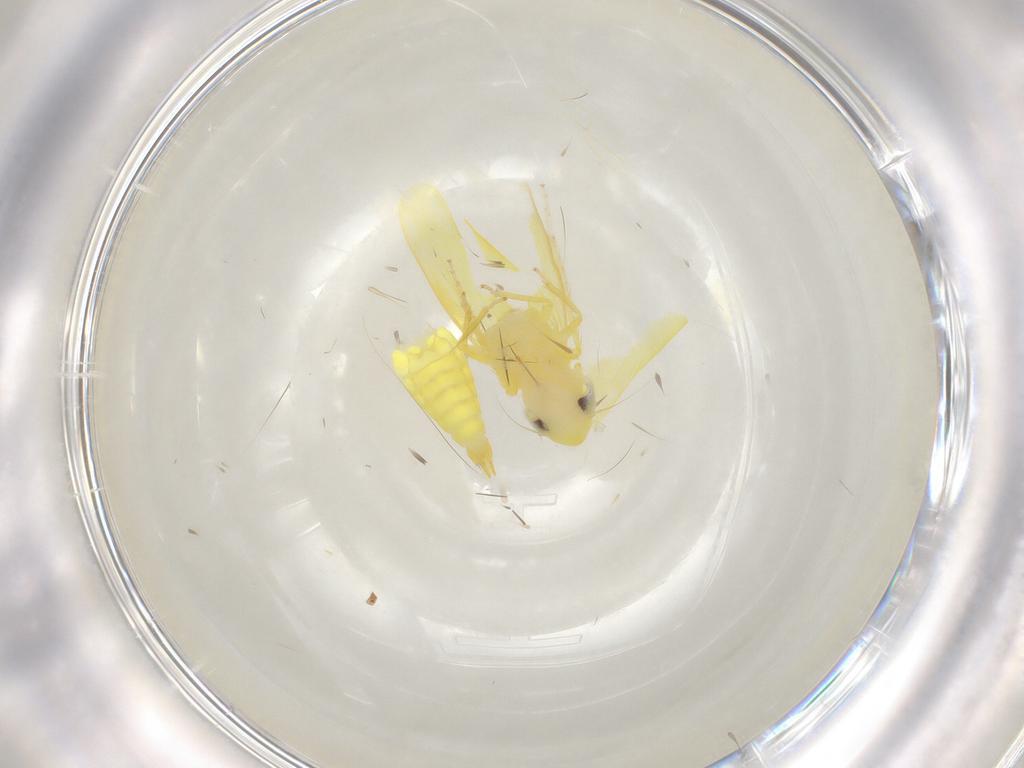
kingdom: Animalia
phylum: Arthropoda
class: Insecta
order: Hemiptera
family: Cicadellidae
